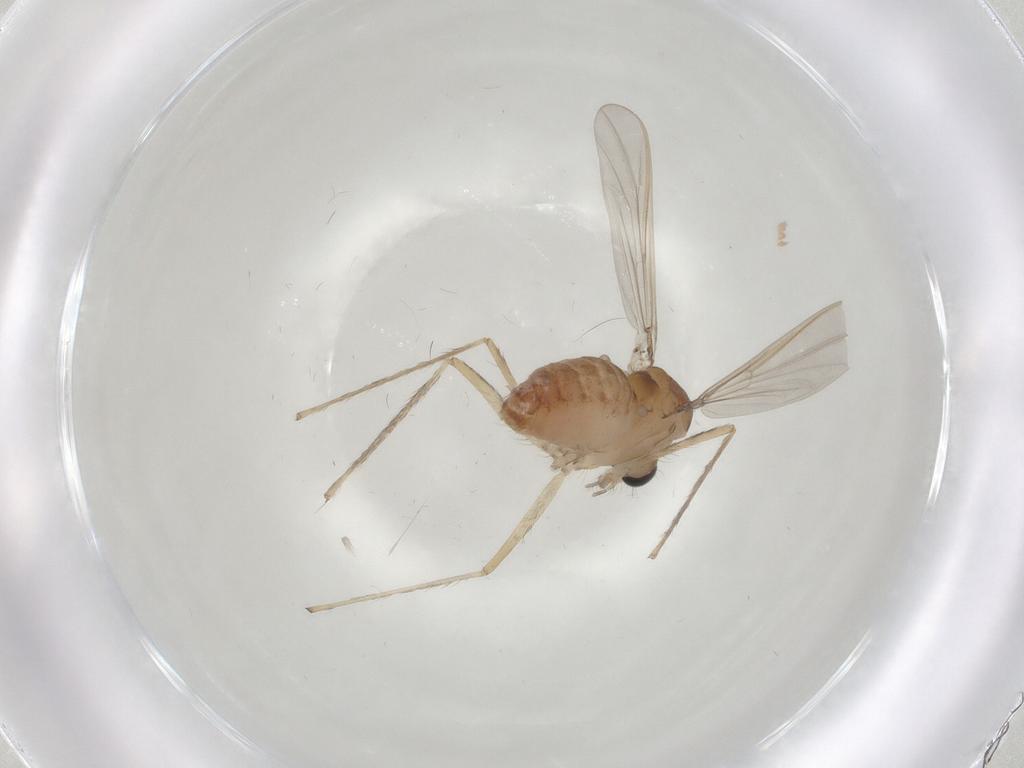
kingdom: Animalia
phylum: Arthropoda
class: Insecta
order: Diptera
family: Chironomidae
